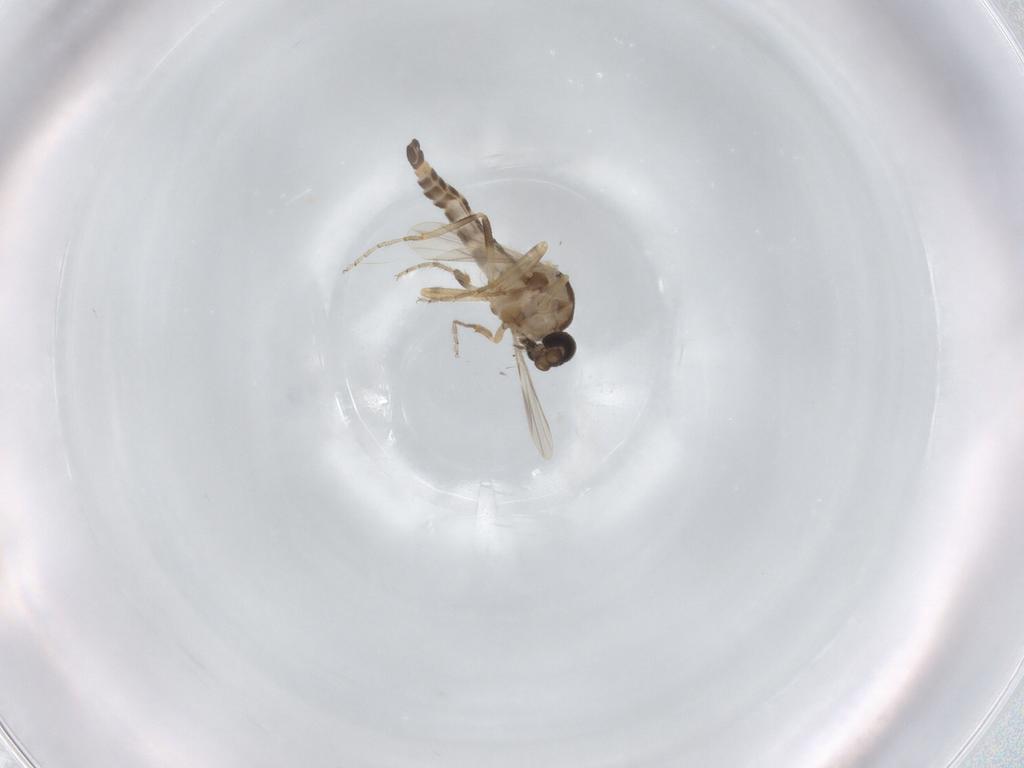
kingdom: Animalia
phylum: Arthropoda
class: Insecta
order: Diptera
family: Ceratopogonidae
